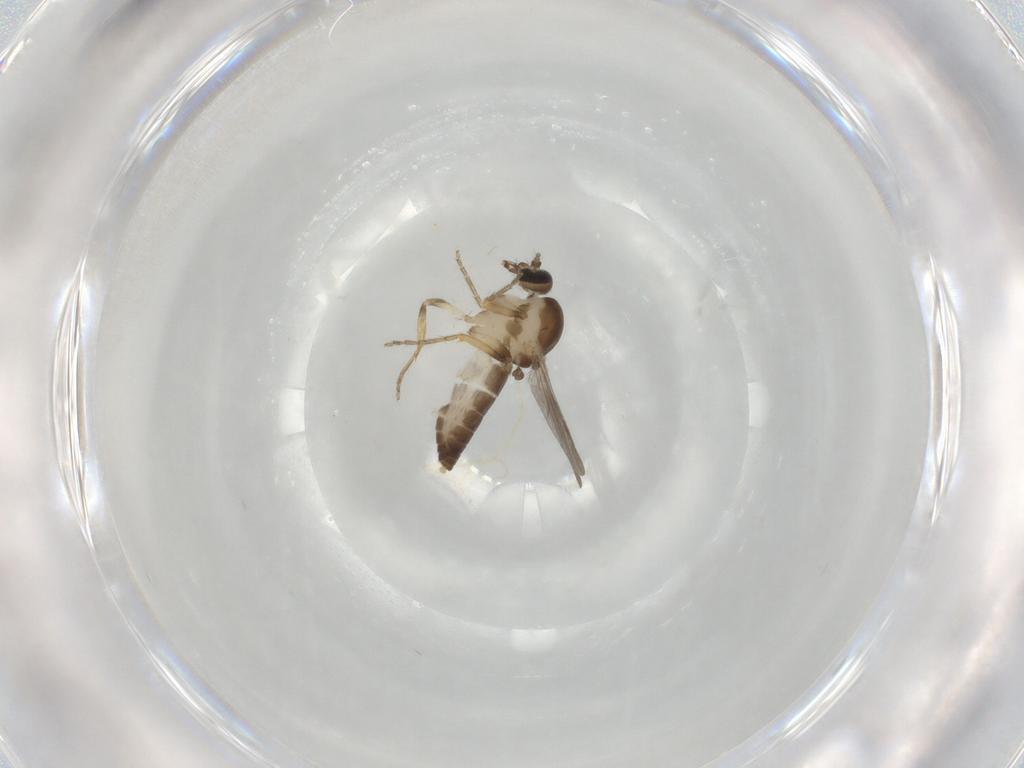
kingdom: Animalia
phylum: Arthropoda
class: Insecta
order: Diptera
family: Ceratopogonidae
